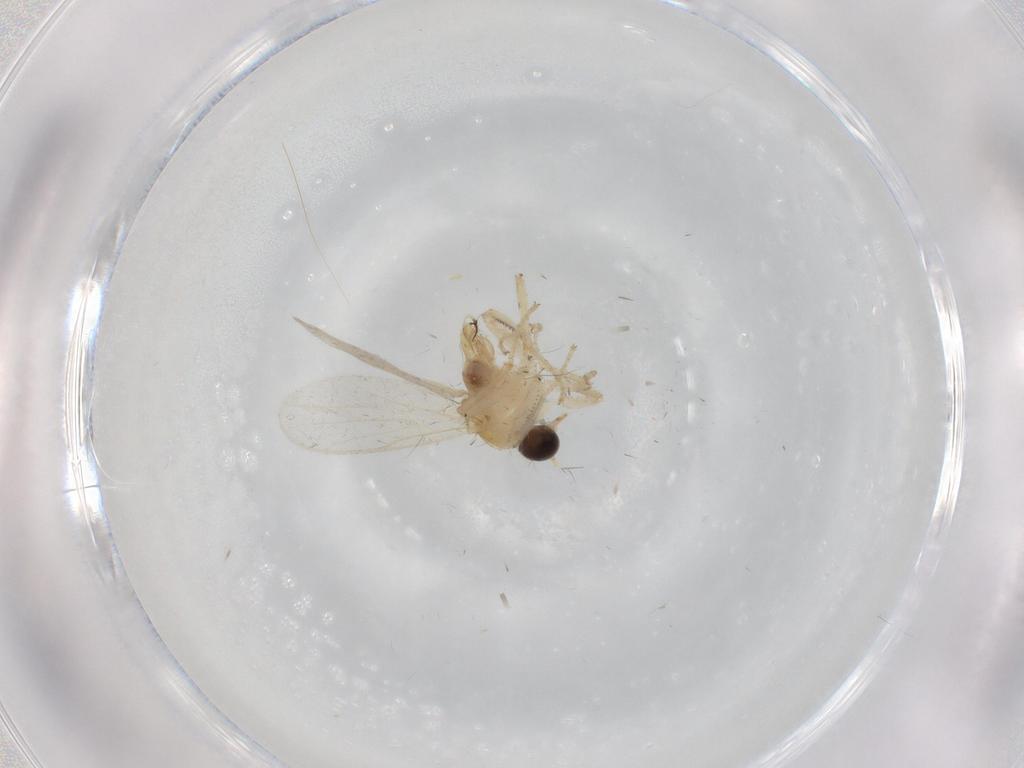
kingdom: Animalia
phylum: Arthropoda
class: Insecta
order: Diptera
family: Hybotidae
